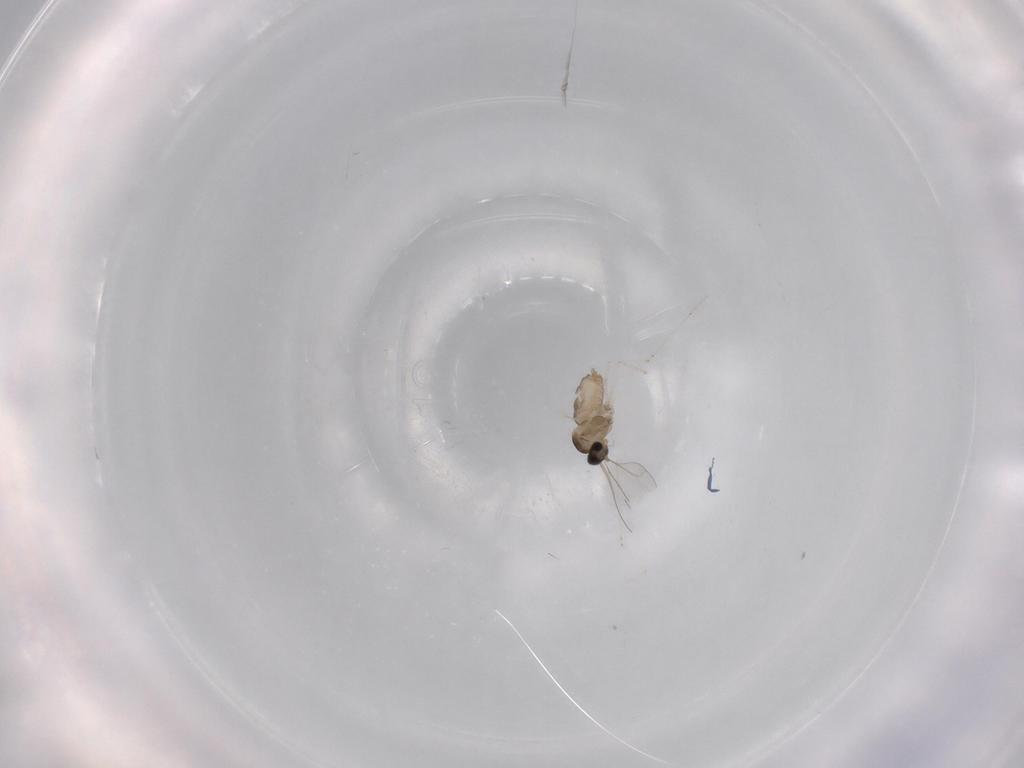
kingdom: Animalia
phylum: Arthropoda
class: Insecta
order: Diptera
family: Cecidomyiidae
